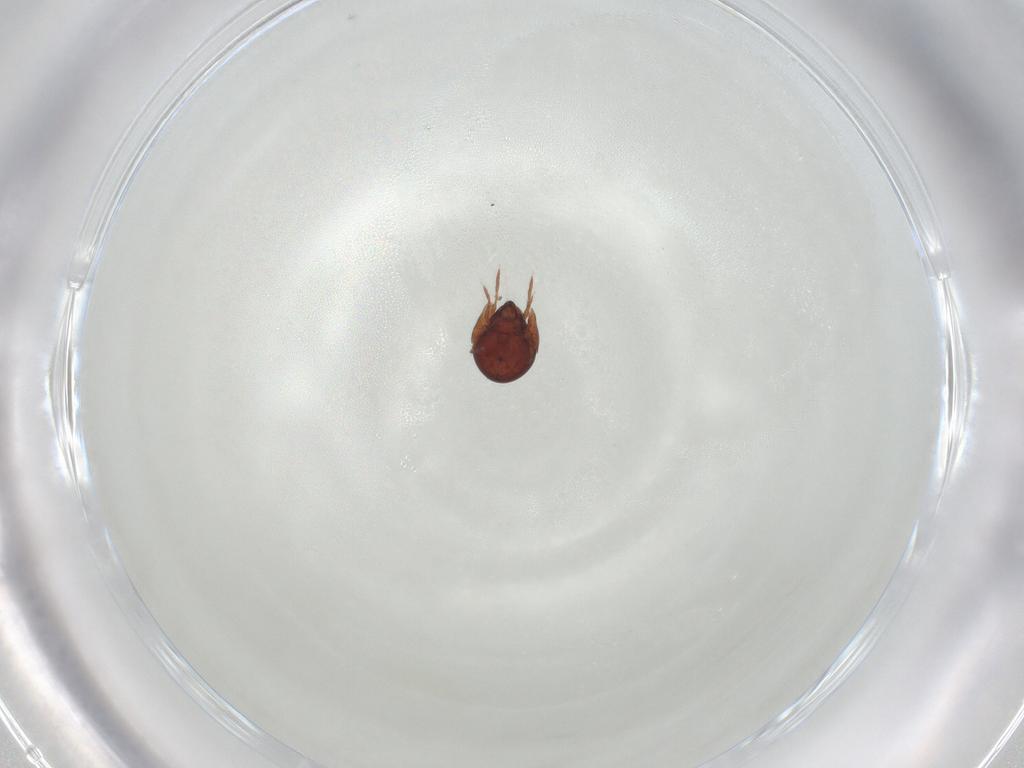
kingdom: Animalia
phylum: Arthropoda
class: Arachnida
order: Sarcoptiformes
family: Galumnidae
